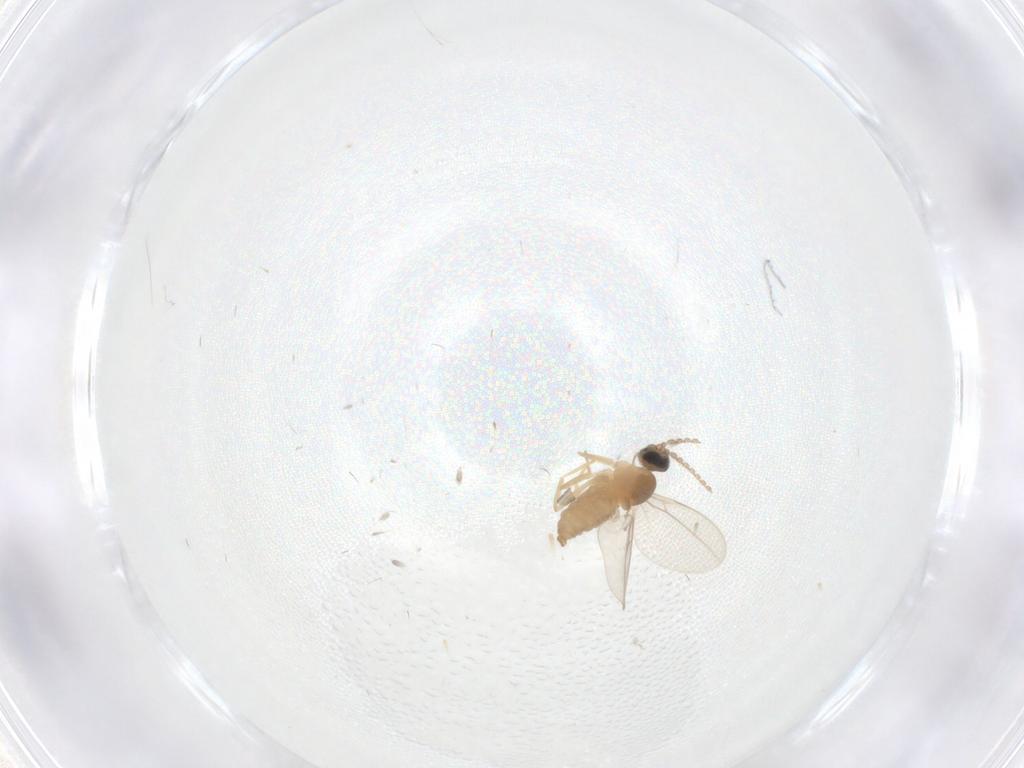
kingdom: Animalia
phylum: Arthropoda
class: Insecta
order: Diptera
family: Cecidomyiidae
